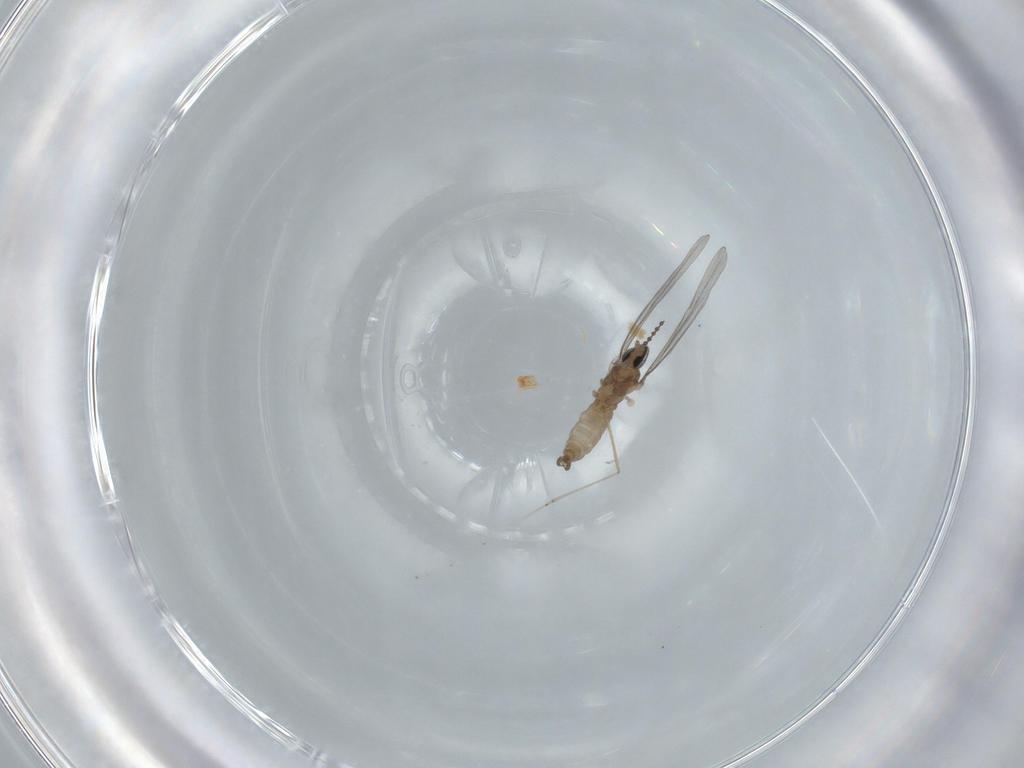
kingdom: Animalia
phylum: Arthropoda
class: Insecta
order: Diptera
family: Cecidomyiidae
